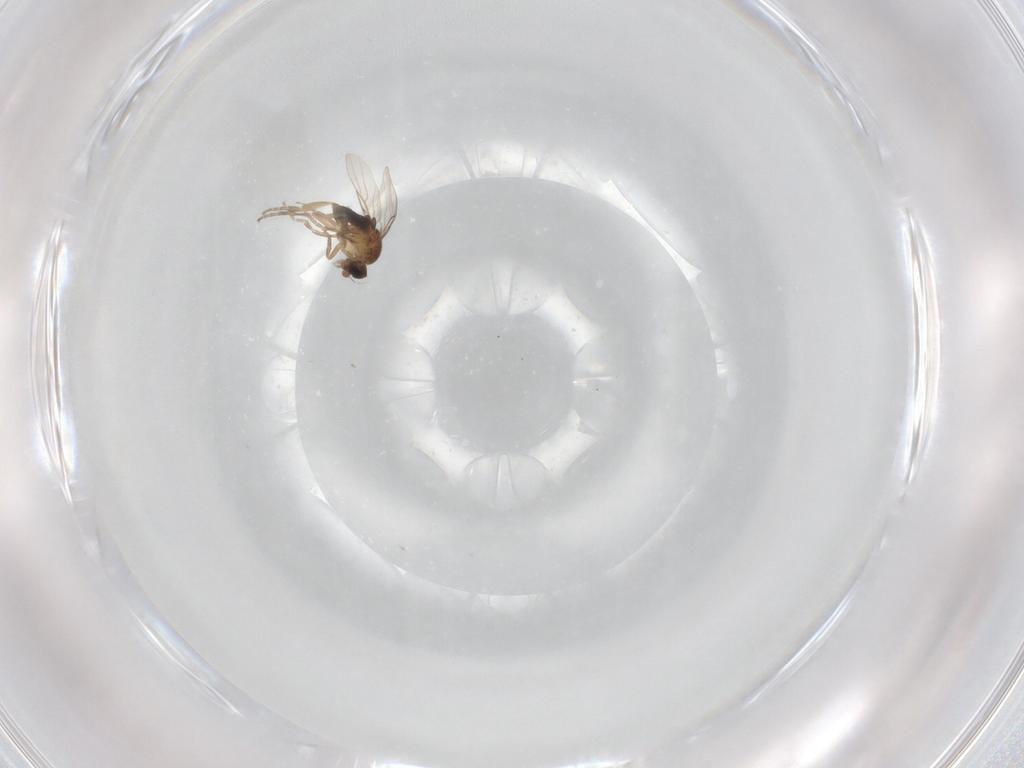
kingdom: Animalia
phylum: Arthropoda
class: Insecta
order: Diptera
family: Phoridae
